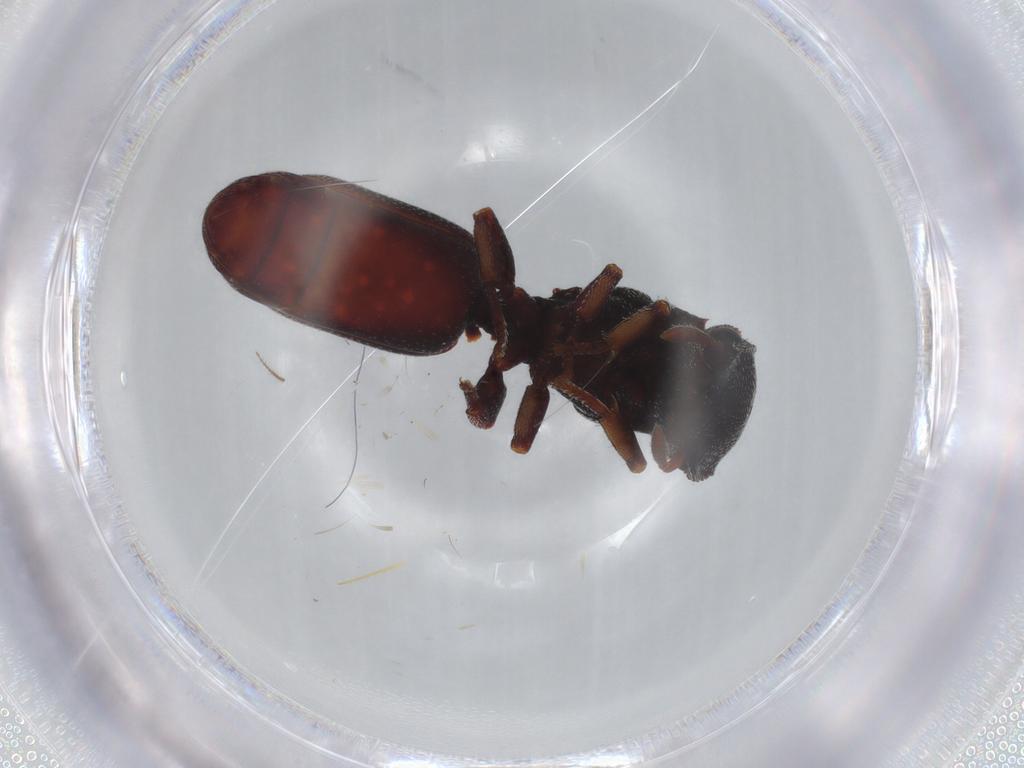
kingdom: Animalia
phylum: Arthropoda
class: Insecta
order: Hymenoptera
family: Formicidae
